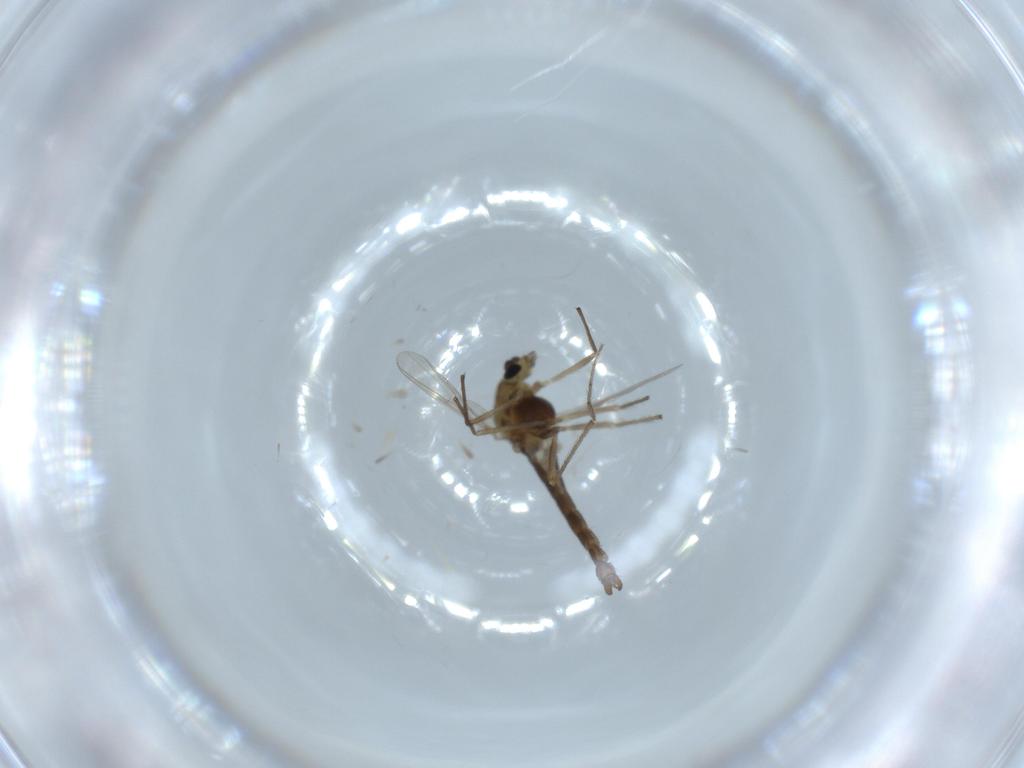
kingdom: Animalia
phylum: Arthropoda
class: Insecta
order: Diptera
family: Chironomidae
